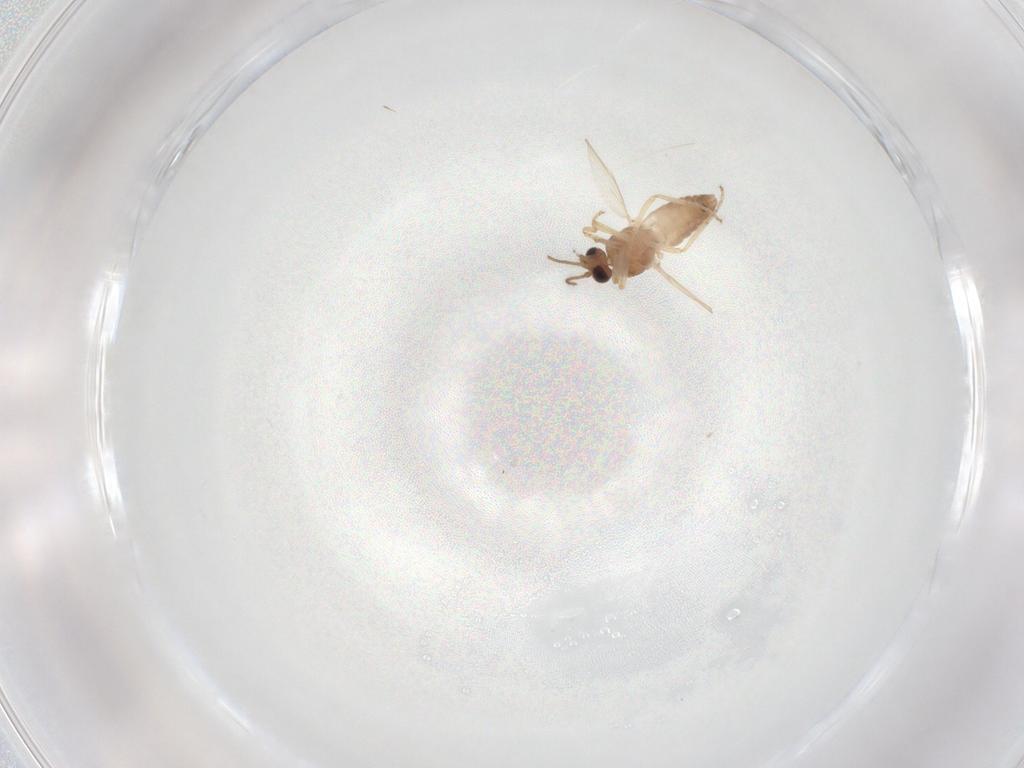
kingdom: Animalia
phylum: Arthropoda
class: Insecta
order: Diptera
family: Ceratopogonidae
